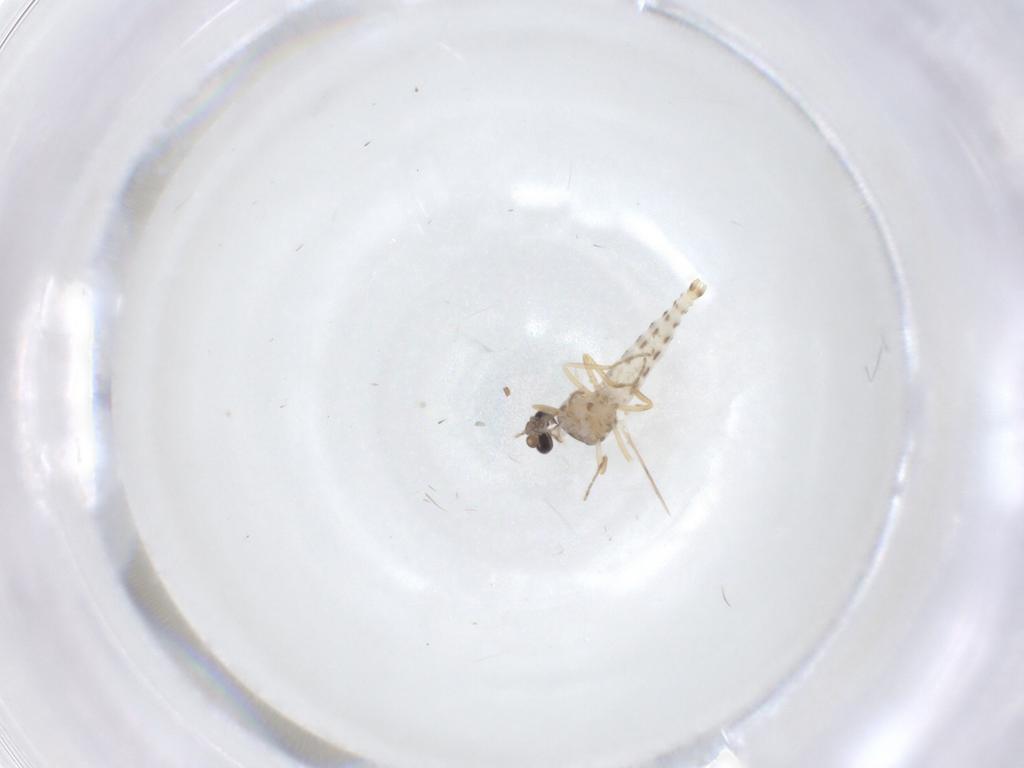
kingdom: Animalia
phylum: Arthropoda
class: Insecta
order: Diptera
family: Ceratopogonidae
